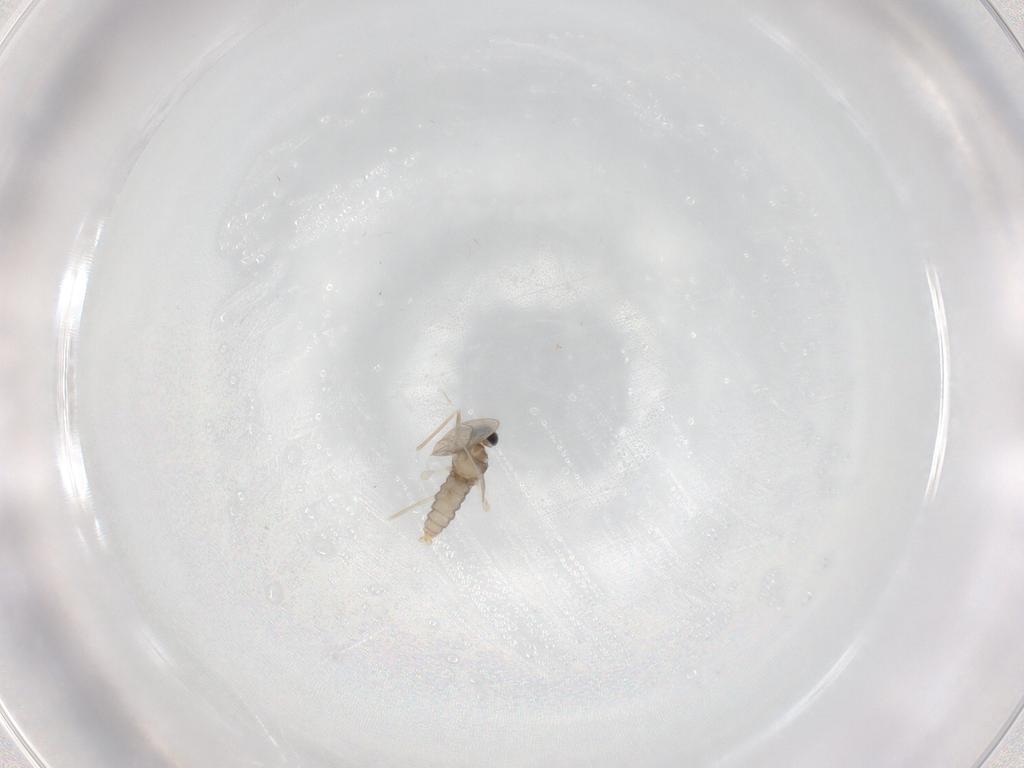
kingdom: Animalia
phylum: Arthropoda
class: Insecta
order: Diptera
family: Cecidomyiidae
